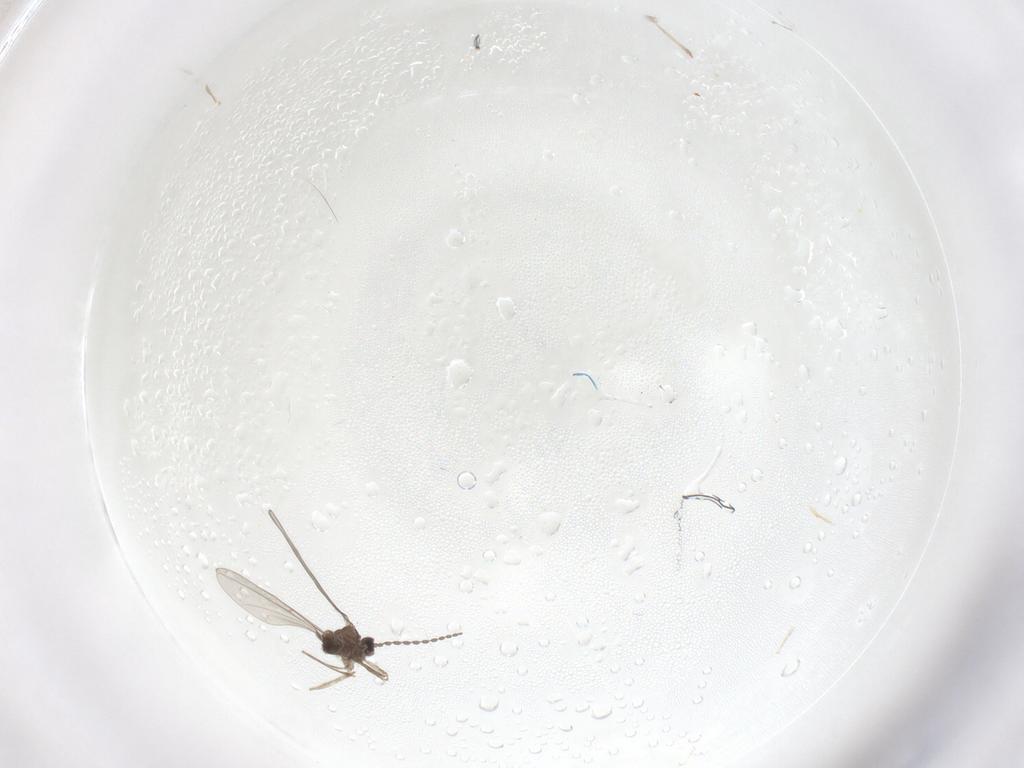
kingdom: Animalia
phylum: Arthropoda
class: Insecta
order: Diptera
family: Cecidomyiidae
